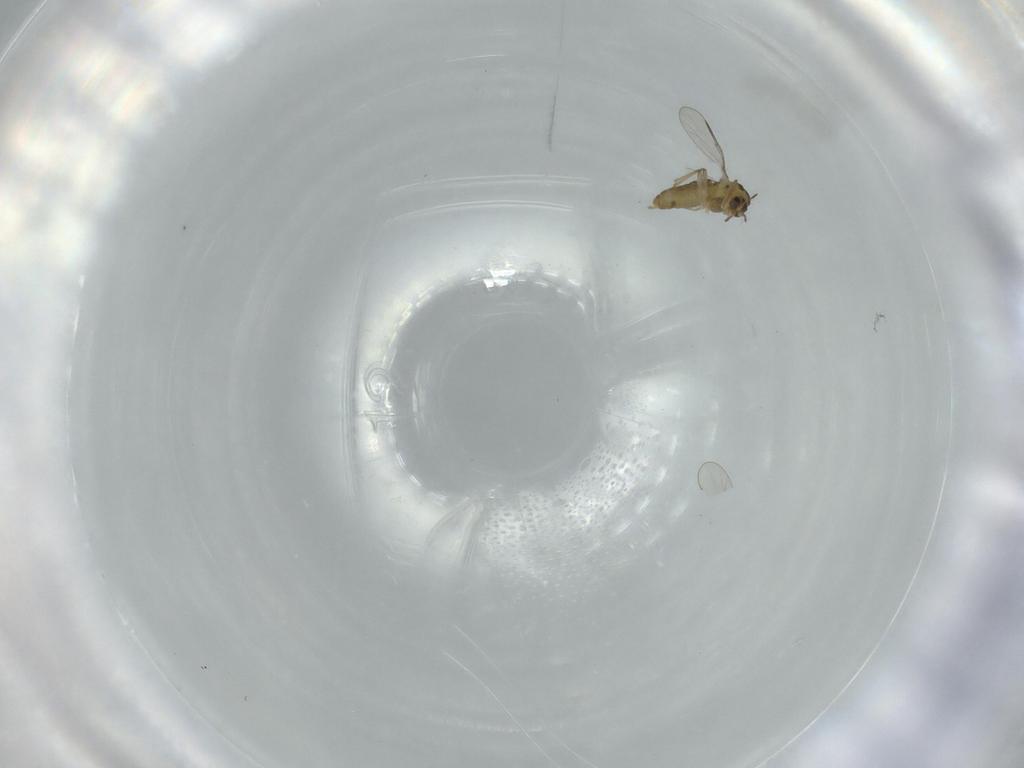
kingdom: Animalia
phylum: Arthropoda
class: Insecta
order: Diptera
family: Chironomidae
